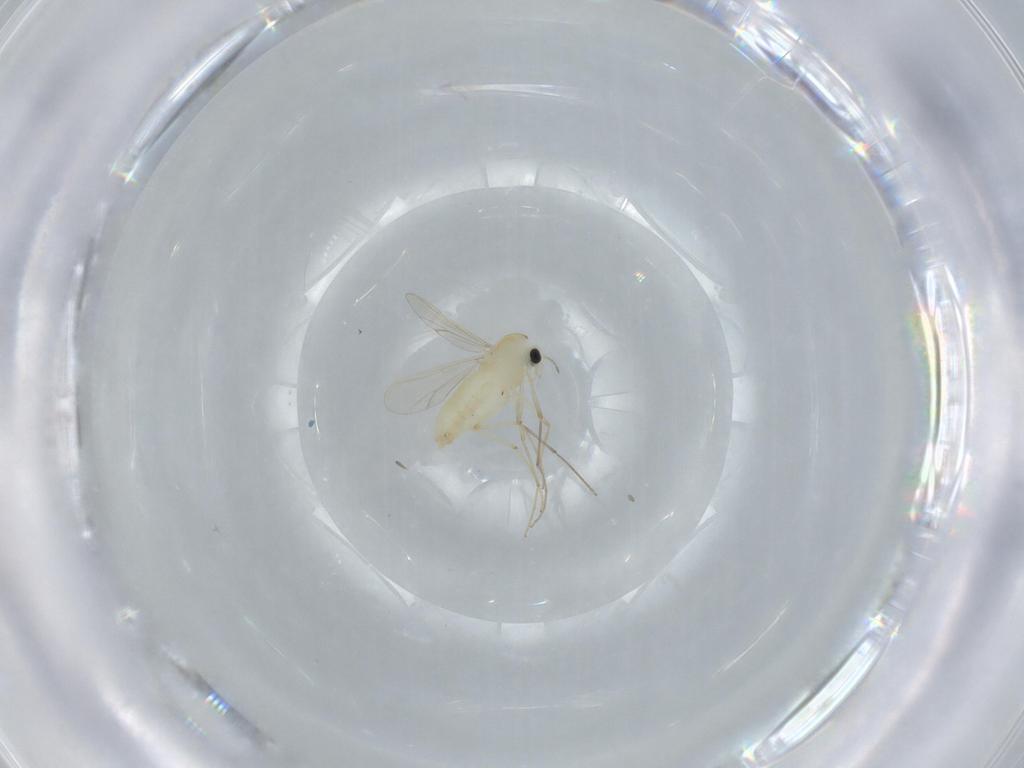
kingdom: Animalia
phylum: Arthropoda
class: Insecta
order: Diptera
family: Chironomidae
